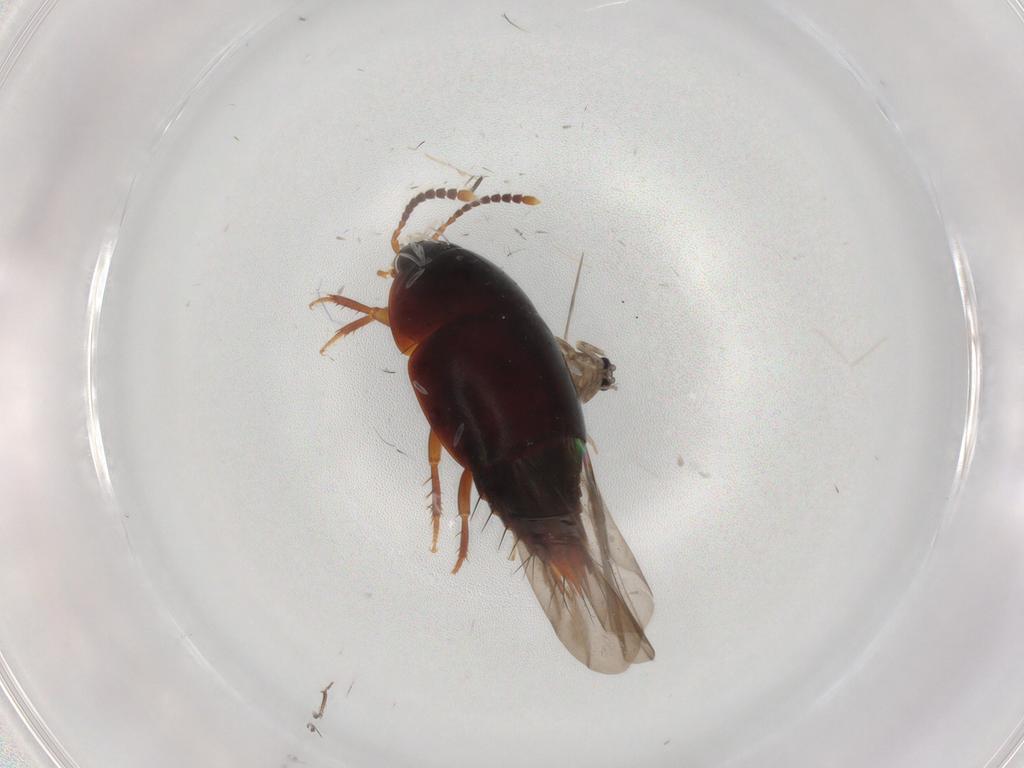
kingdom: Animalia
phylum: Arthropoda
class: Insecta
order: Diptera
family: Ceratopogonidae
